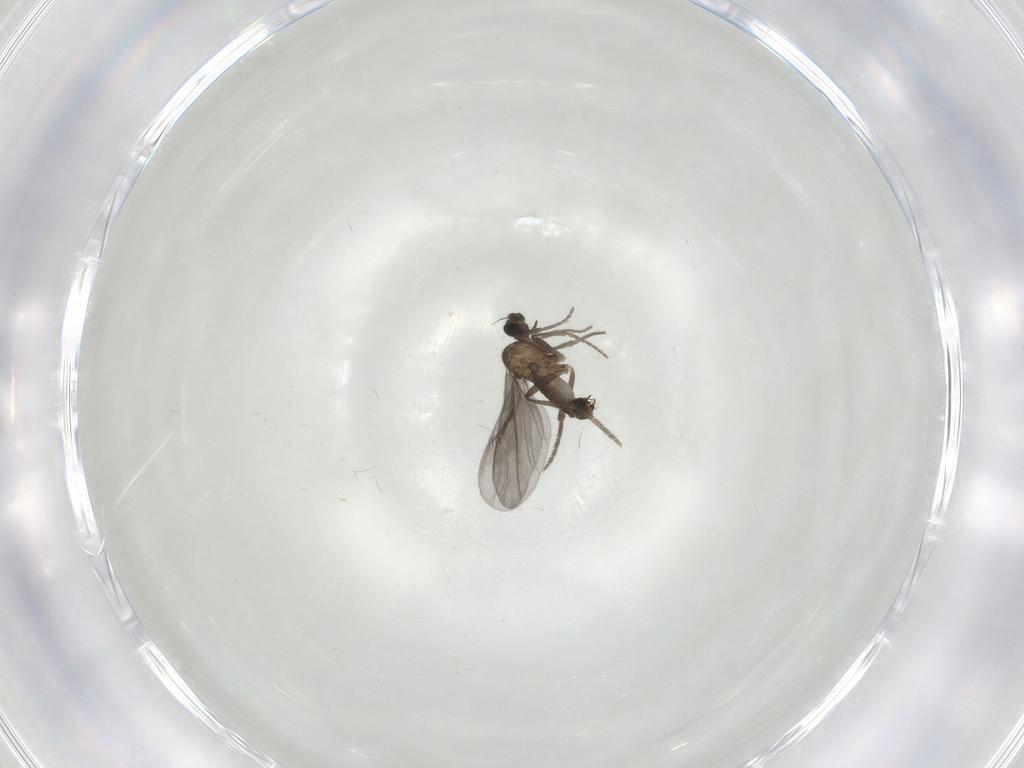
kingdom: Animalia
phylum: Arthropoda
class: Insecta
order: Diptera
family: Phoridae
